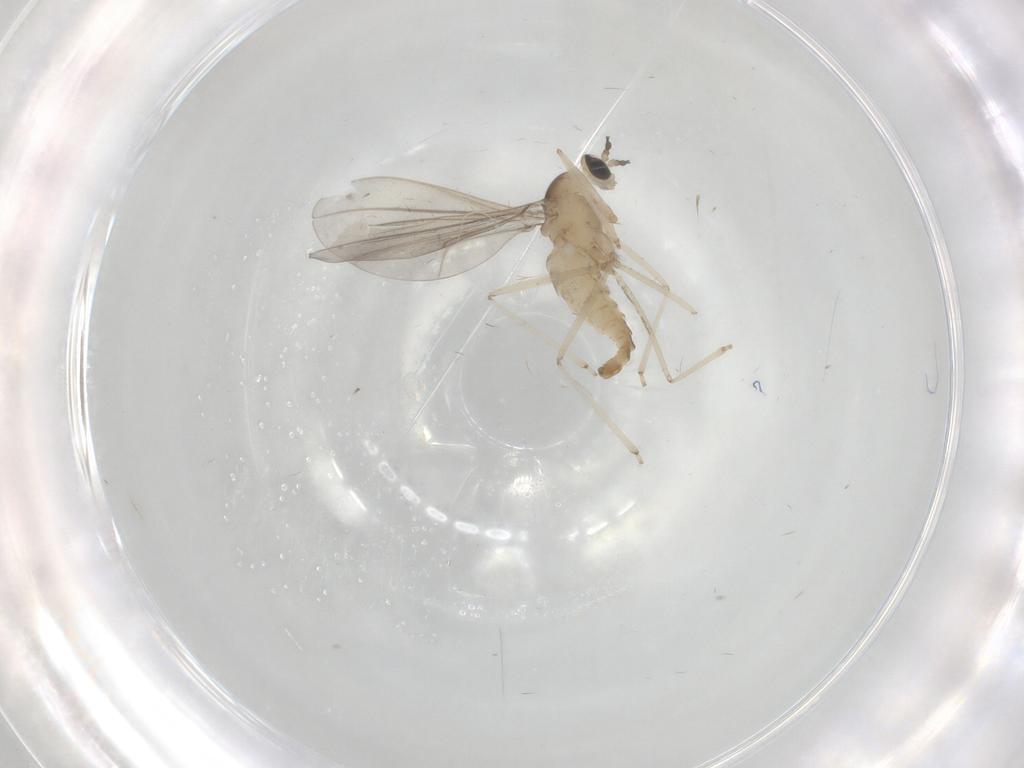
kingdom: Animalia
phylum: Arthropoda
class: Insecta
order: Diptera
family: Cecidomyiidae
